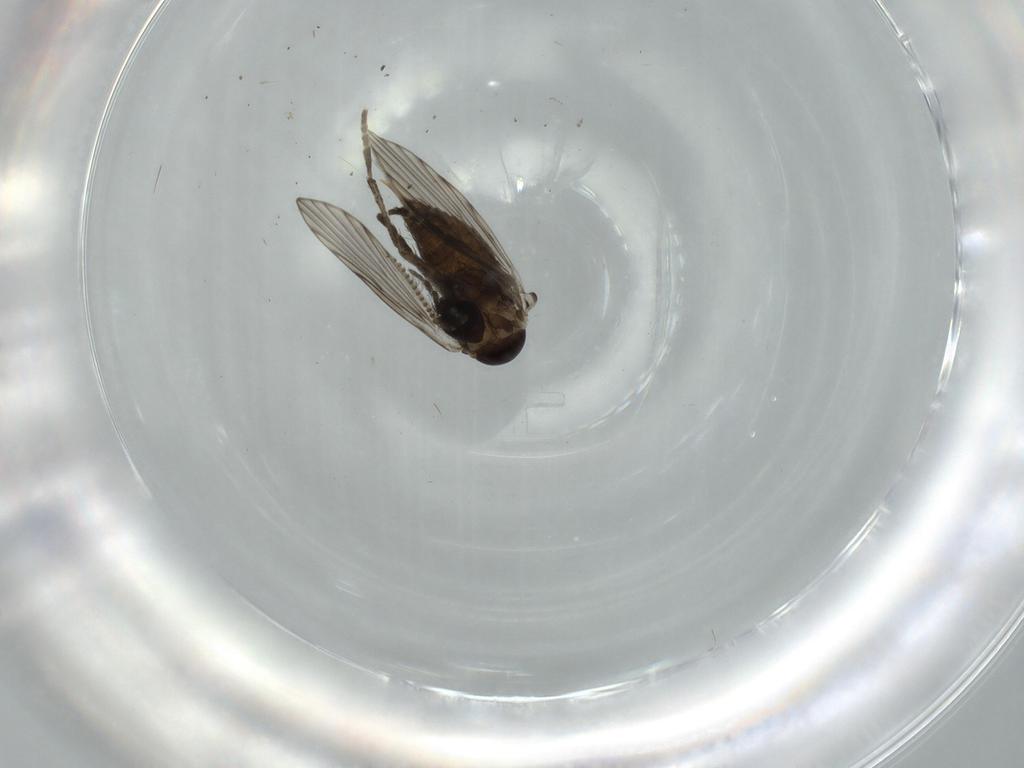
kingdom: Animalia
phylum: Arthropoda
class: Insecta
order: Diptera
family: Psychodidae
